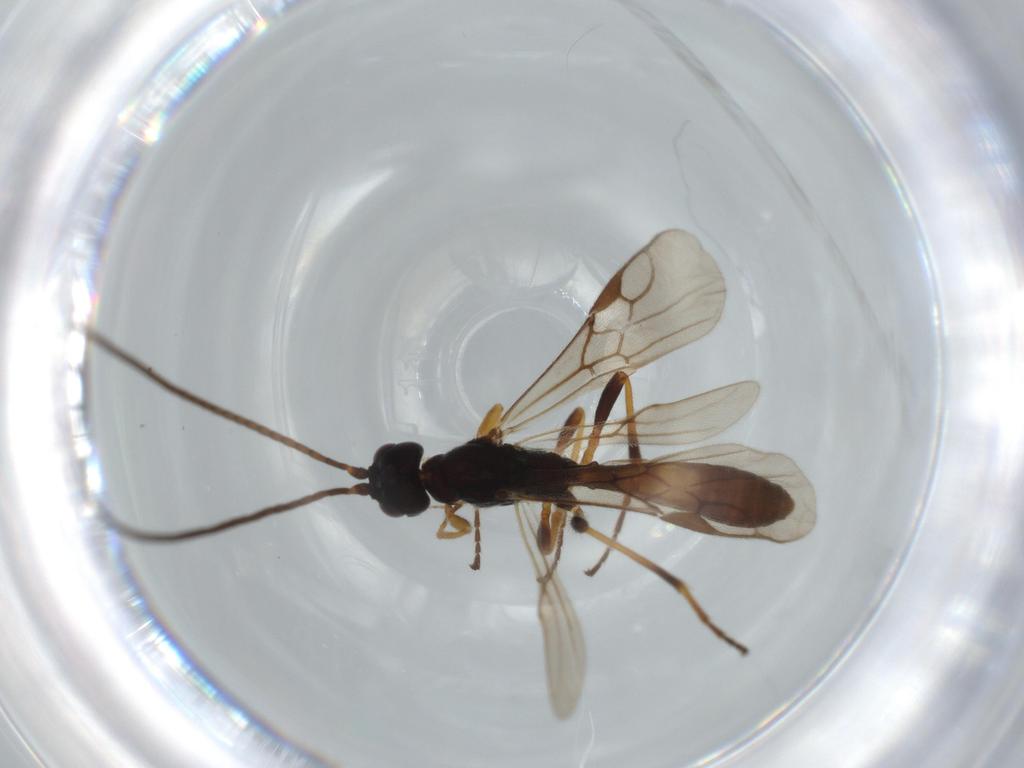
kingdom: Animalia
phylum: Arthropoda
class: Insecta
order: Hymenoptera
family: Braconidae
